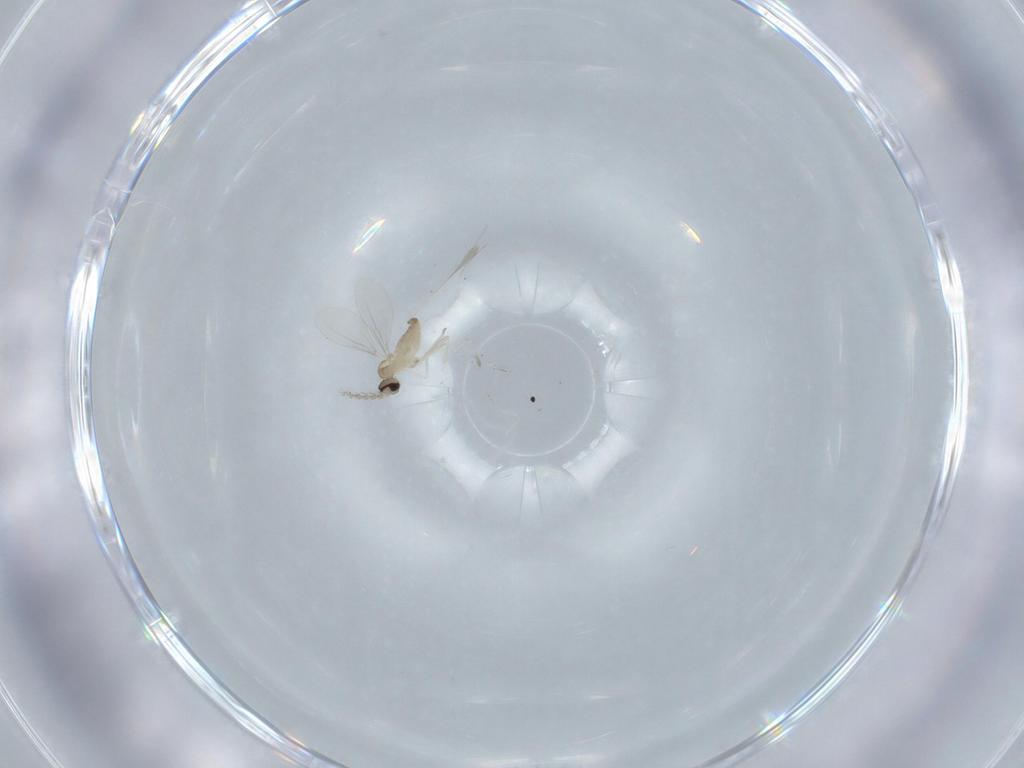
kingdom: Animalia
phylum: Arthropoda
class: Insecta
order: Diptera
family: Cecidomyiidae
